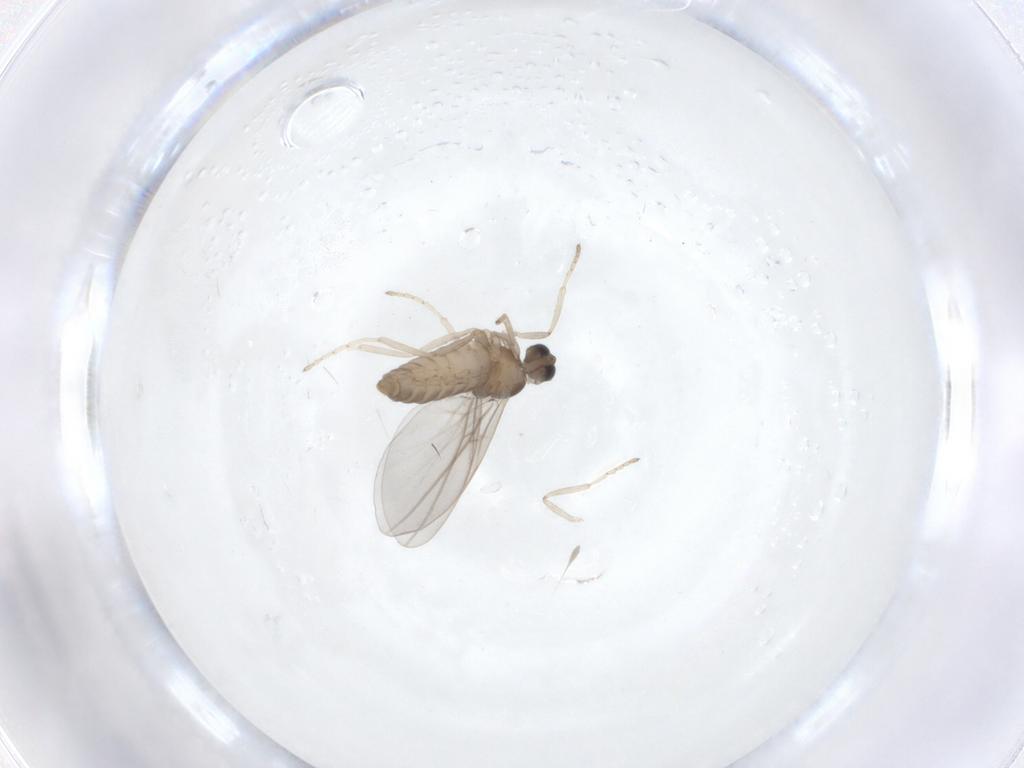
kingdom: Animalia
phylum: Arthropoda
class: Insecta
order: Diptera
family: Cecidomyiidae
